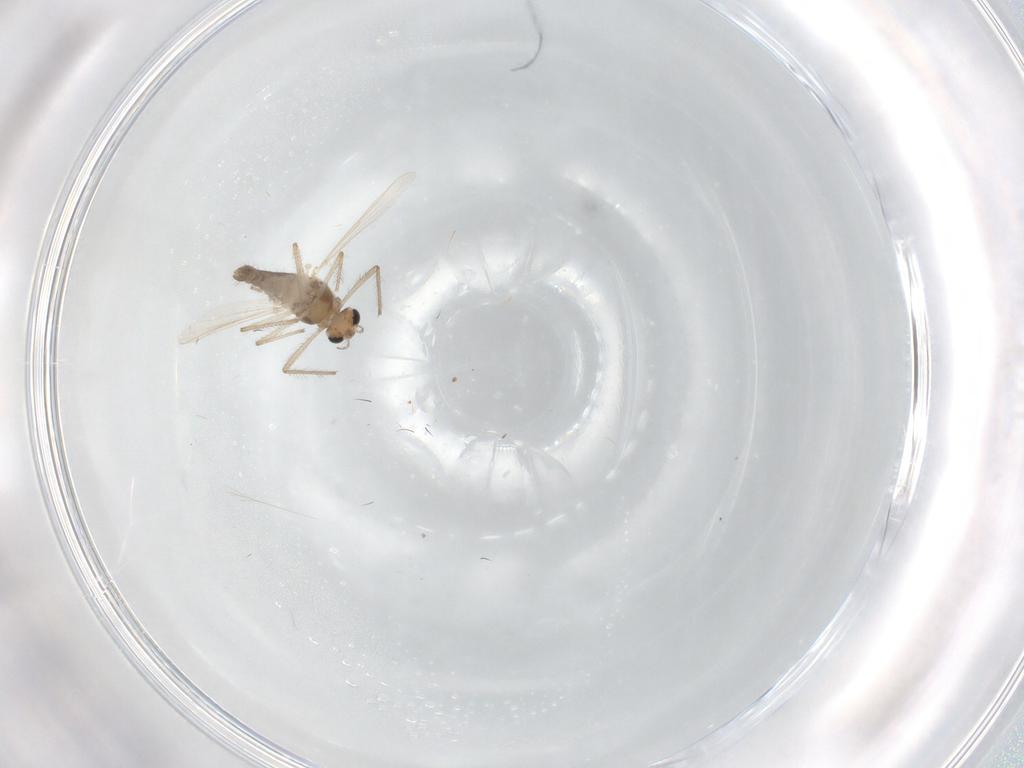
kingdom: Animalia
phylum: Arthropoda
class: Insecta
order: Diptera
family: Chironomidae
